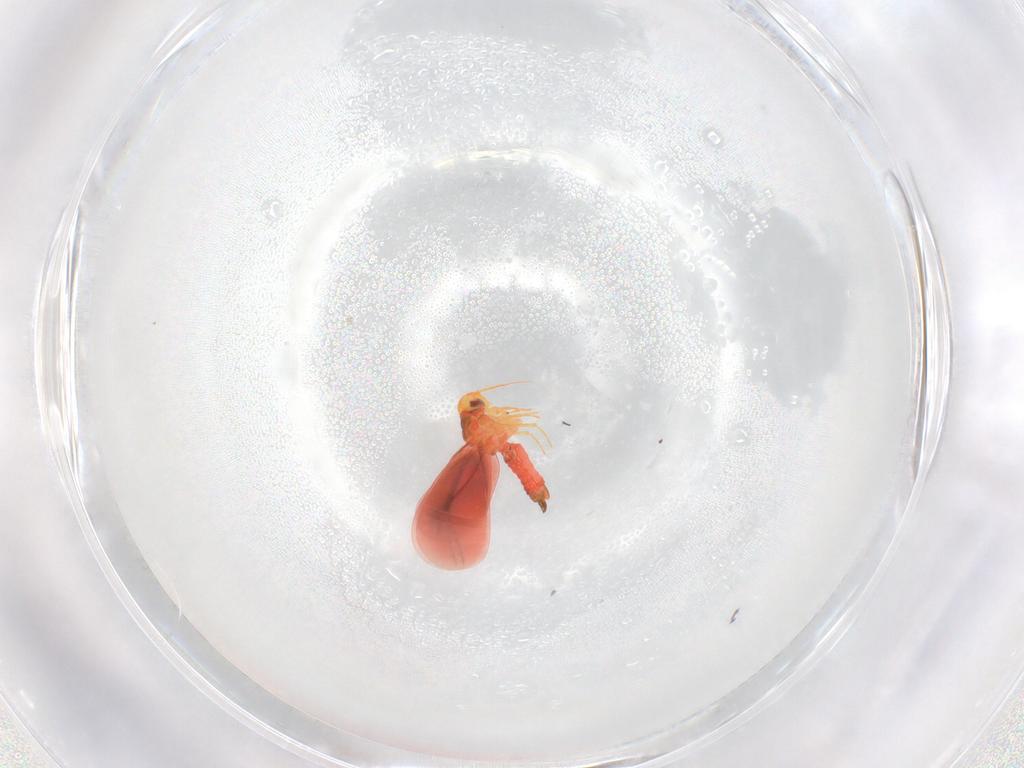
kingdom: Animalia
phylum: Arthropoda
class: Insecta
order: Hemiptera
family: Aleyrodidae
